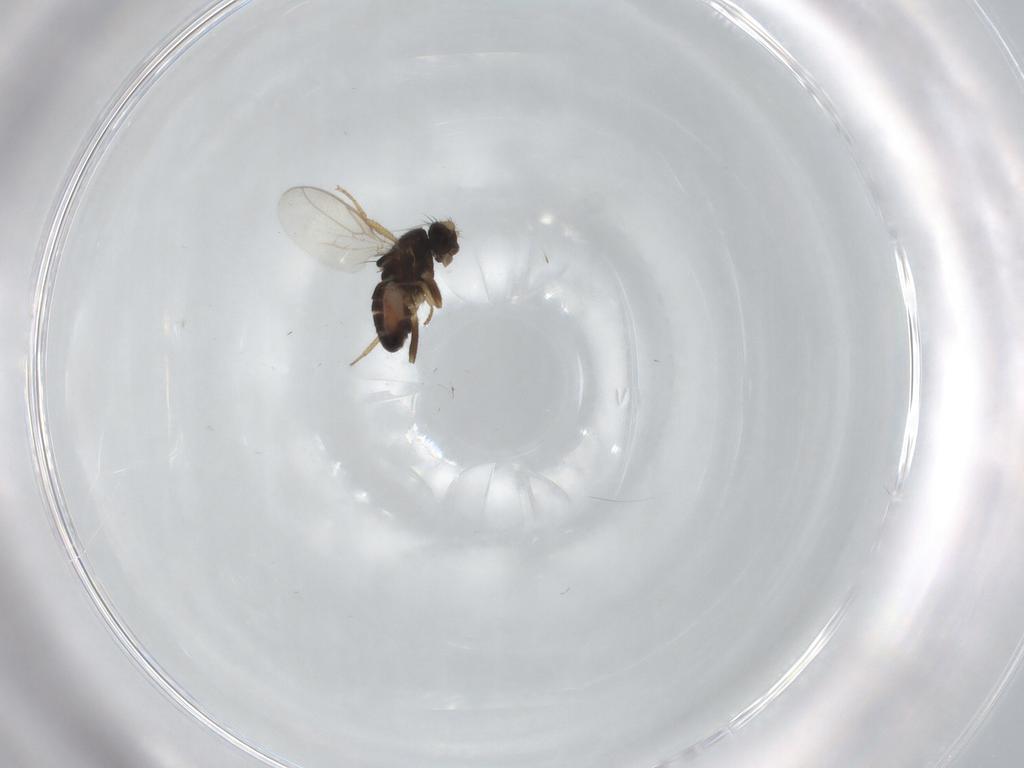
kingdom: Animalia
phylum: Arthropoda
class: Insecta
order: Diptera
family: Sphaeroceridae
